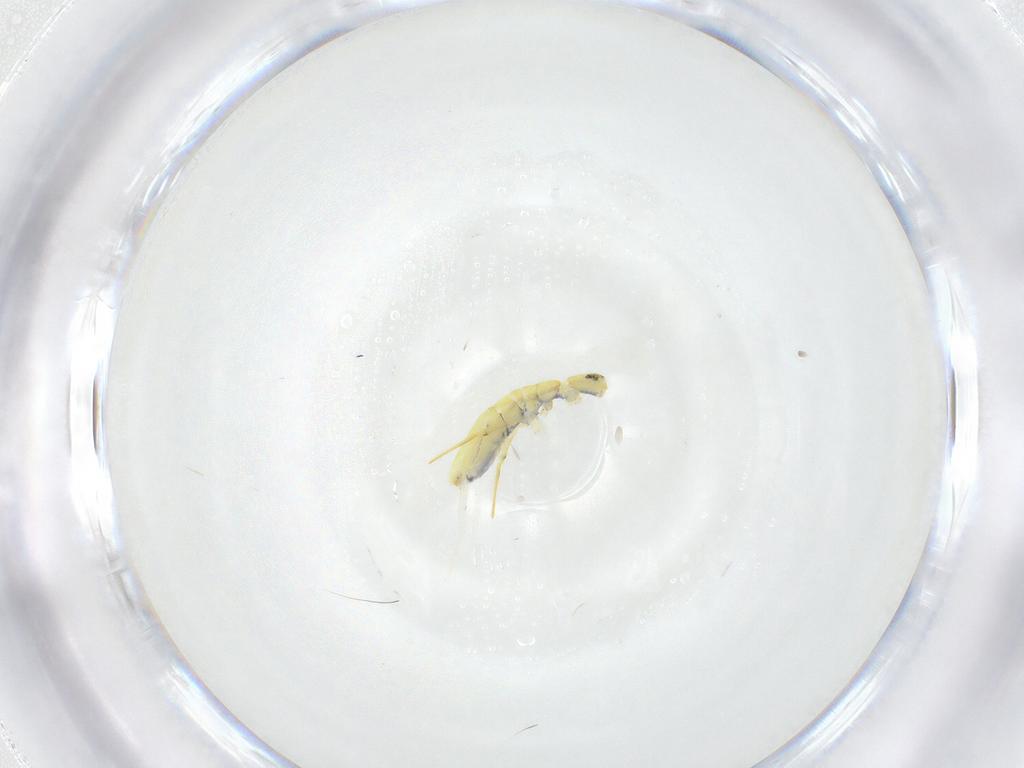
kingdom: Animalia
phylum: Arthropoda
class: Collembola
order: Entomobryomorpha
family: Paronellidae
